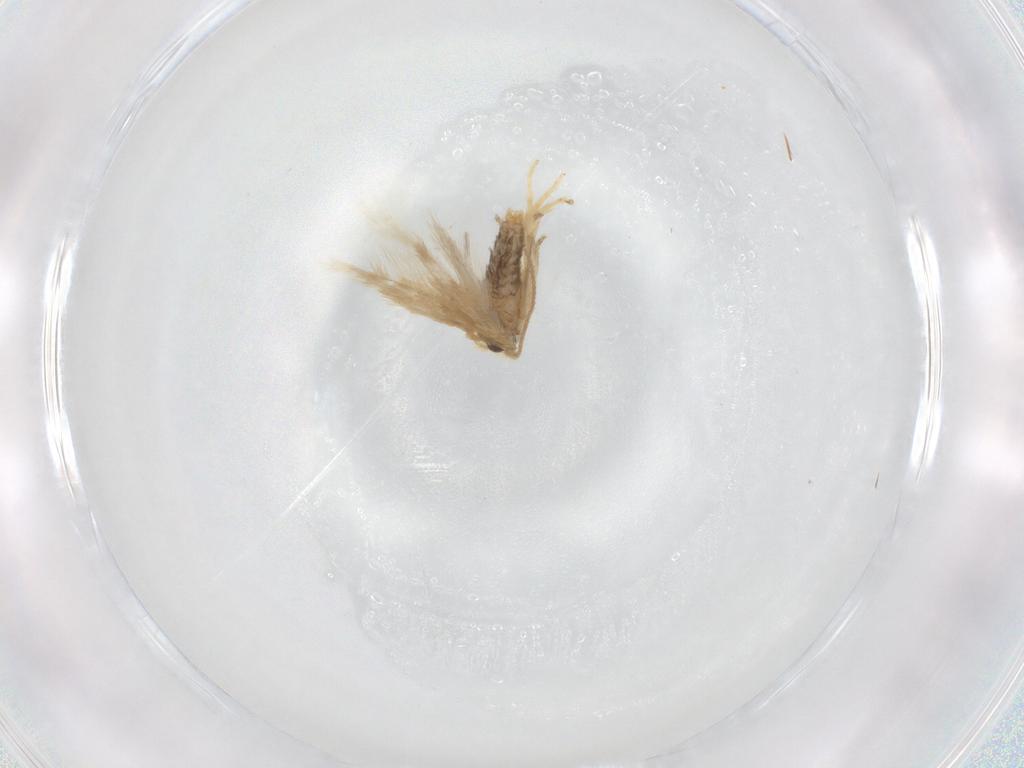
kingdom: Animalia
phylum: Arthropoda
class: Insecta
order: Lepidoptera
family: Nepticulidae
